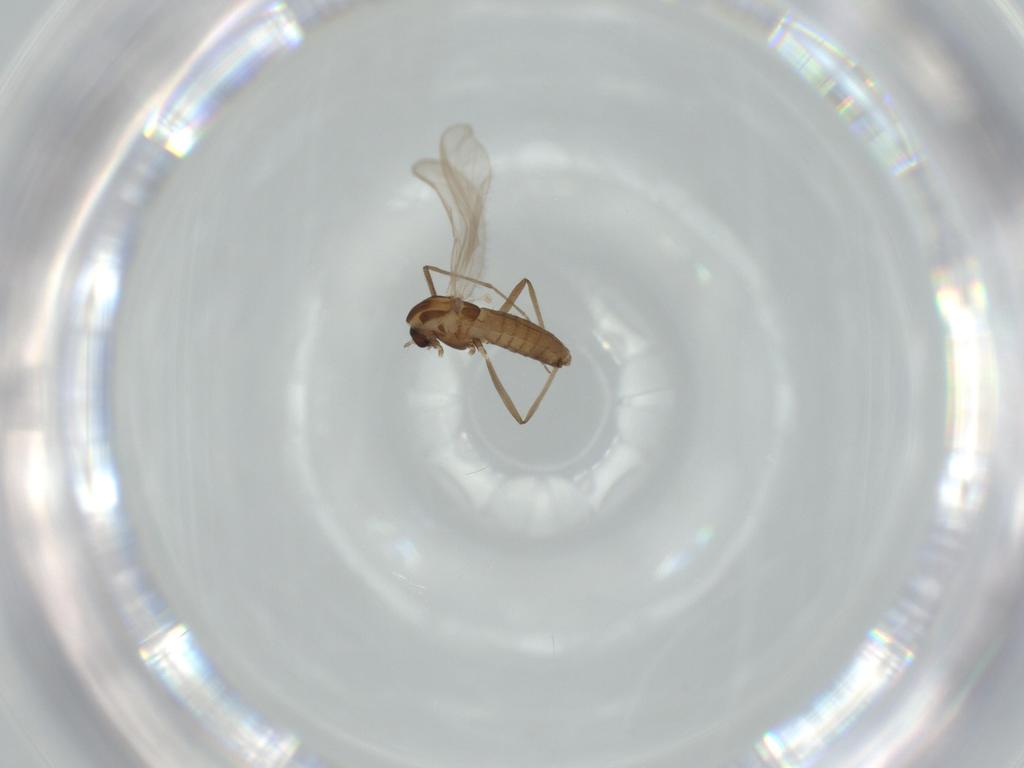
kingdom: Animalia
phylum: Arthropoda
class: Insecta
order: Diptera
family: Chironomidae
